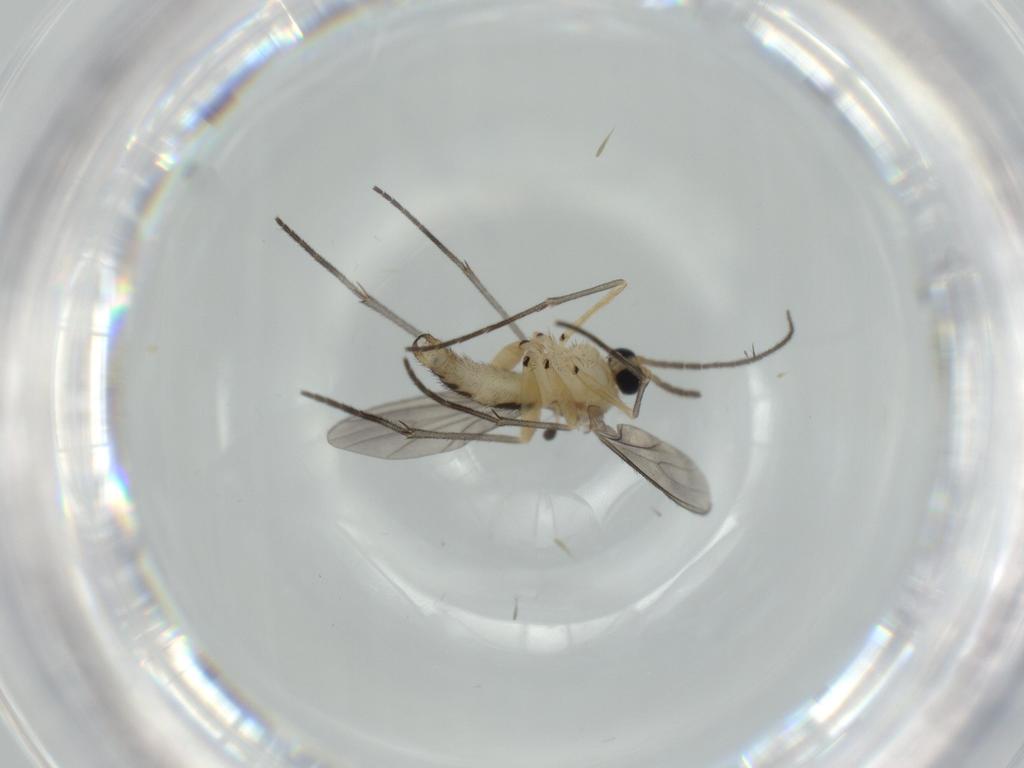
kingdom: Animalia
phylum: Arthropoda
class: Insecta
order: Diptera
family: Sciaridae
